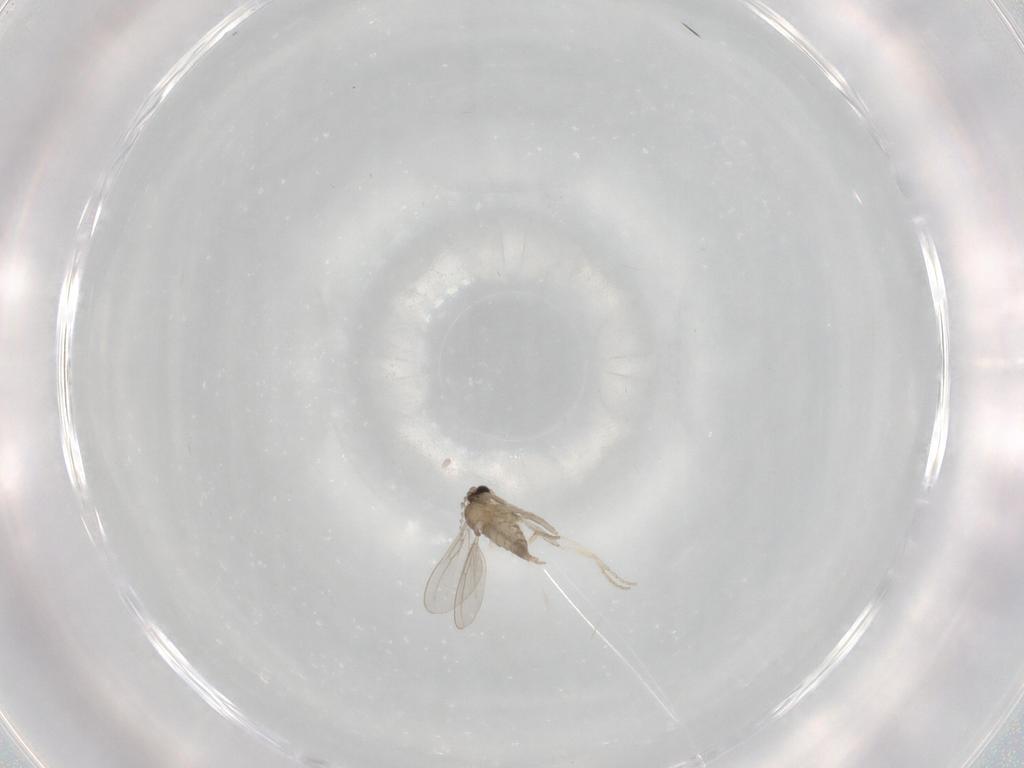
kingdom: Animalia
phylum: Arthropoda
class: Insecta
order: Diptera
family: Cecidomyiidae
